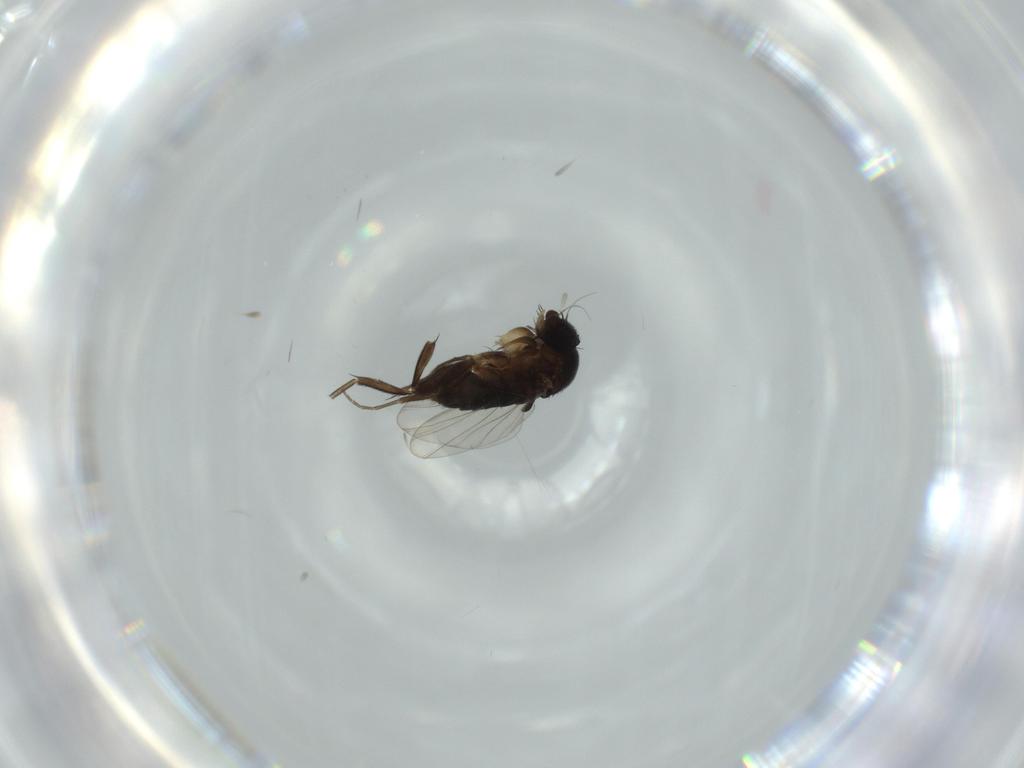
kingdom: Animalia
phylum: Arthropoda
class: Insecta
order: Diptera
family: Phoridae
